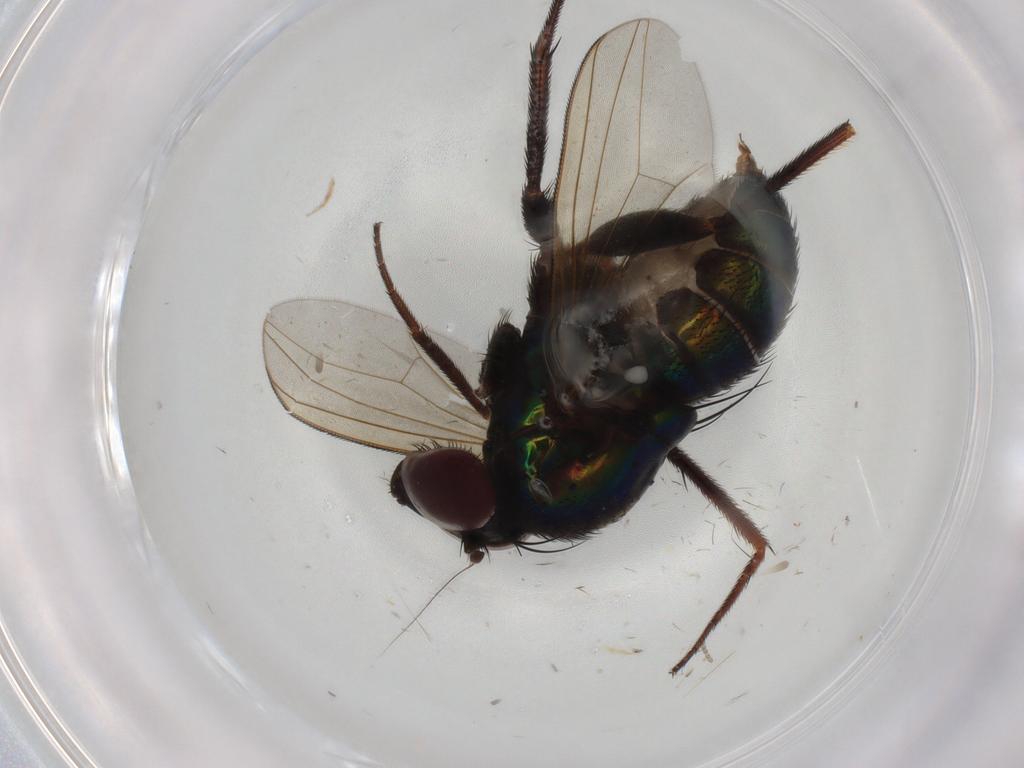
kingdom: Animalia
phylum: Arthropoda
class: Insecta
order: Diptera
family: Dolichopodidae
